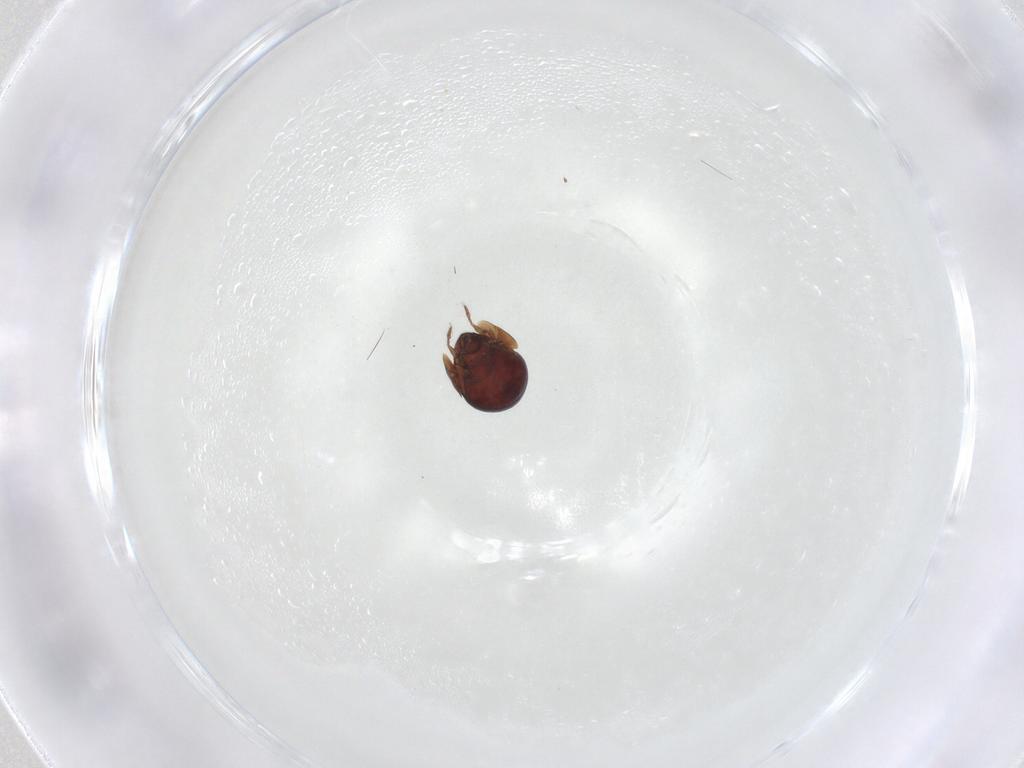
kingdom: Animalia
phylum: Arthropoda
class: Arachnida
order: Sarcoptiformes
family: Galumnidae
